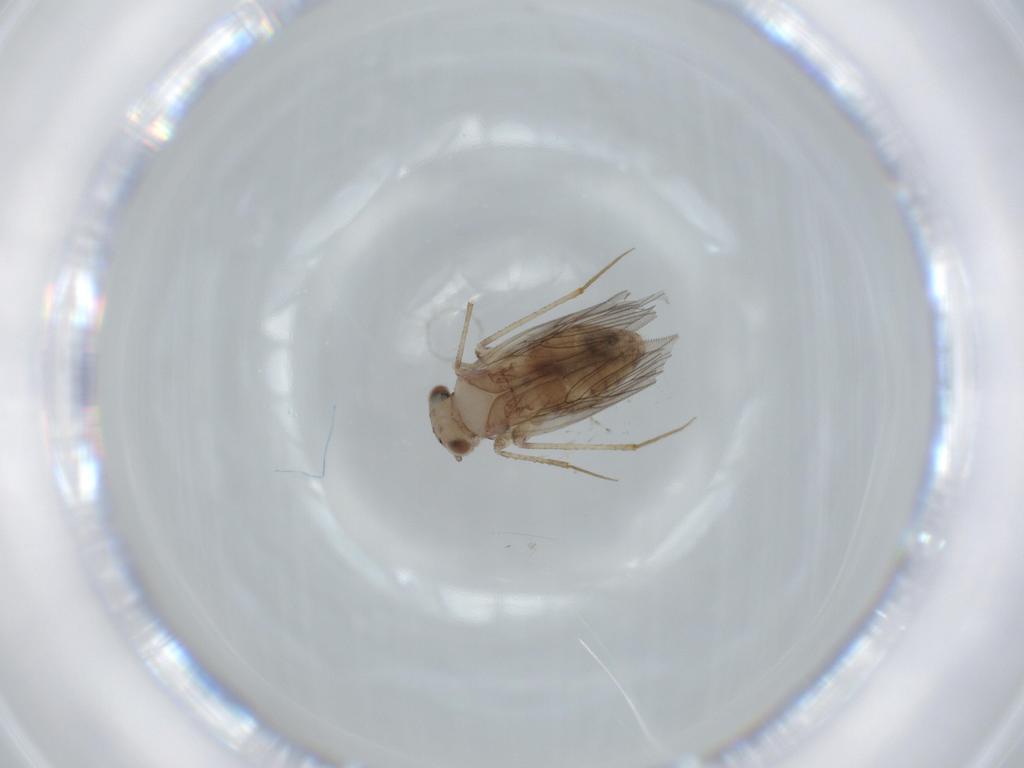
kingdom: Animalia
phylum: Arthropoda
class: Insecta
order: Psocodea
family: Lepidopsocidae
